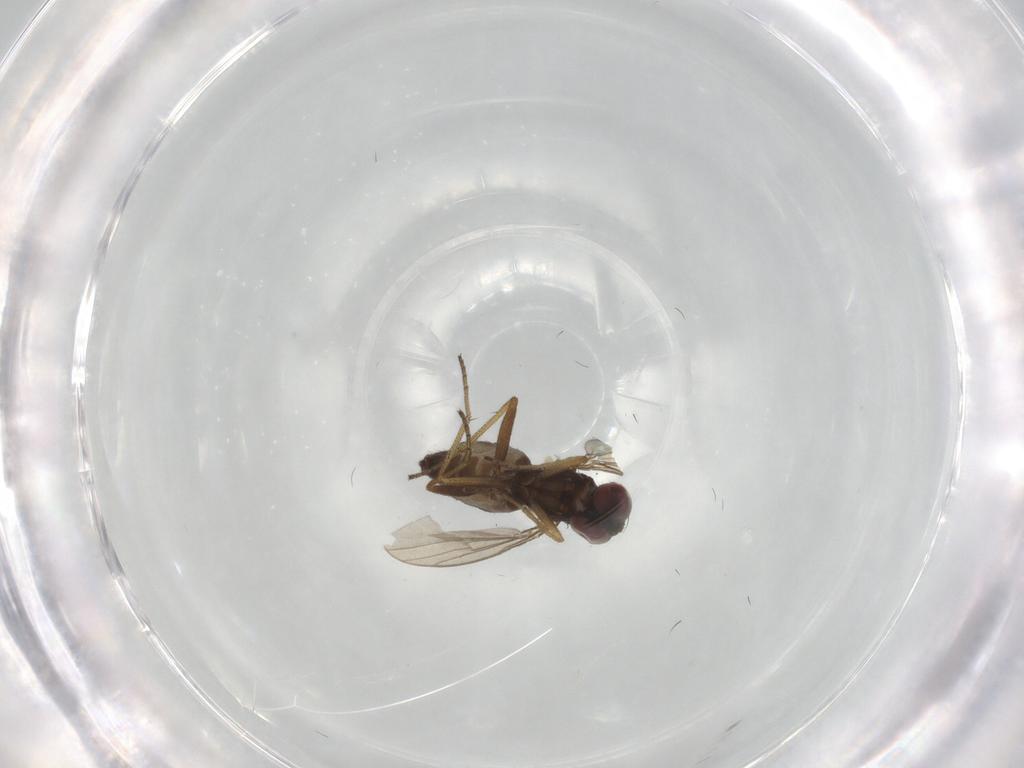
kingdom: Animalia
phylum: Arthropoda
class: Insecta
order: Diptera
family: Dolichopodidae
